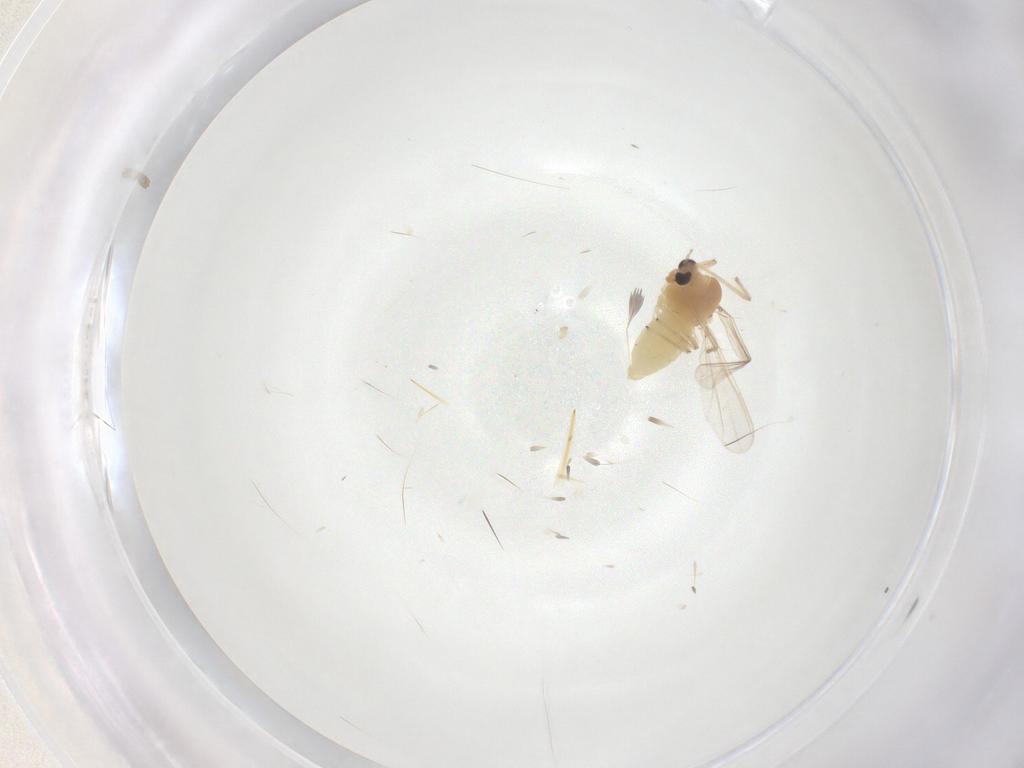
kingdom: Animalia
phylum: Arthropoda
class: Insecta
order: Diptera
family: Chironomidae
